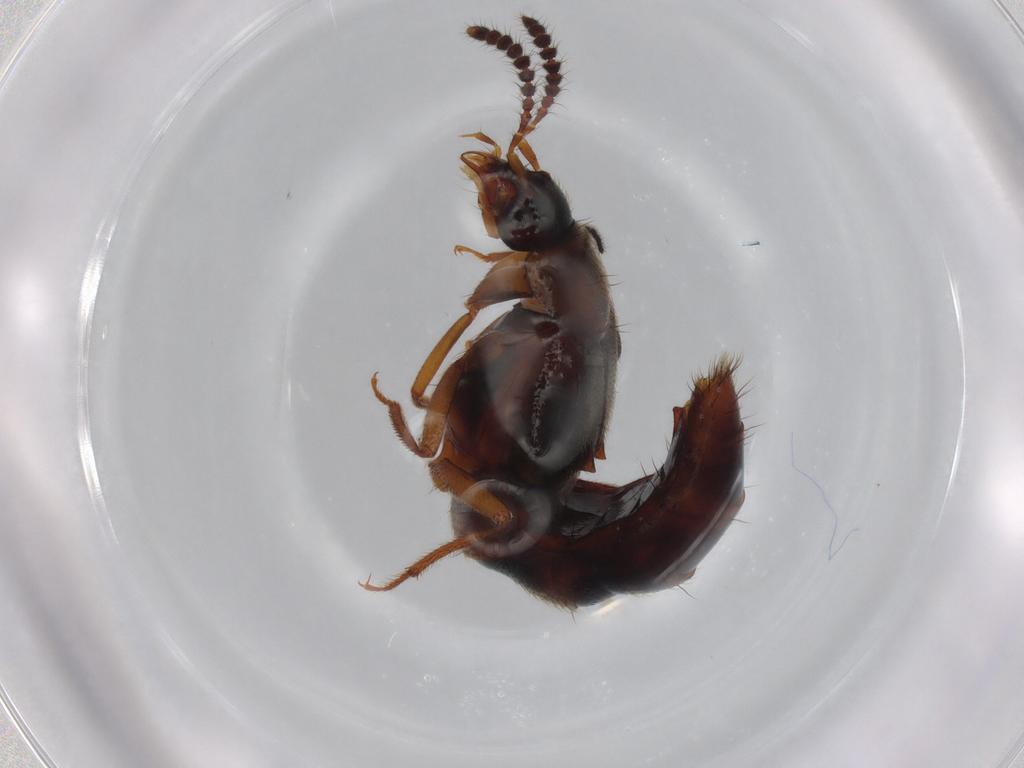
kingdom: Animalia
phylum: Arthropoda
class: Insecta
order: Coleoptera
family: Staphylinidae
